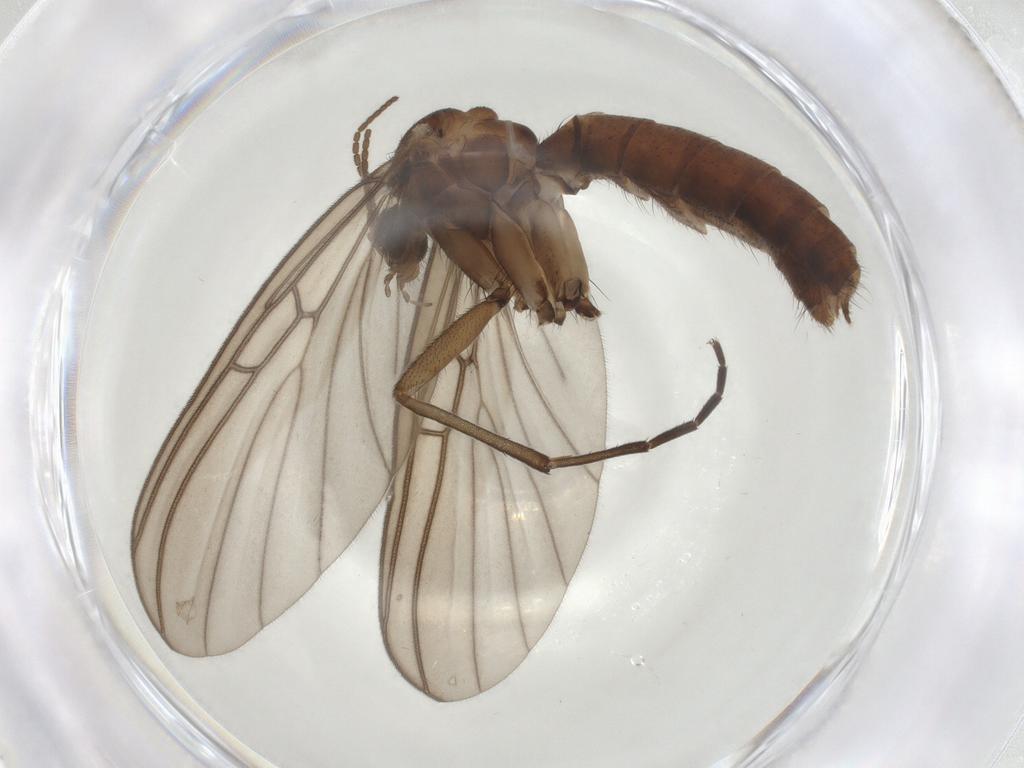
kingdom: Animalia
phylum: Arthropoda
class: Insecta
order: Diptera
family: Mycetophilidae
